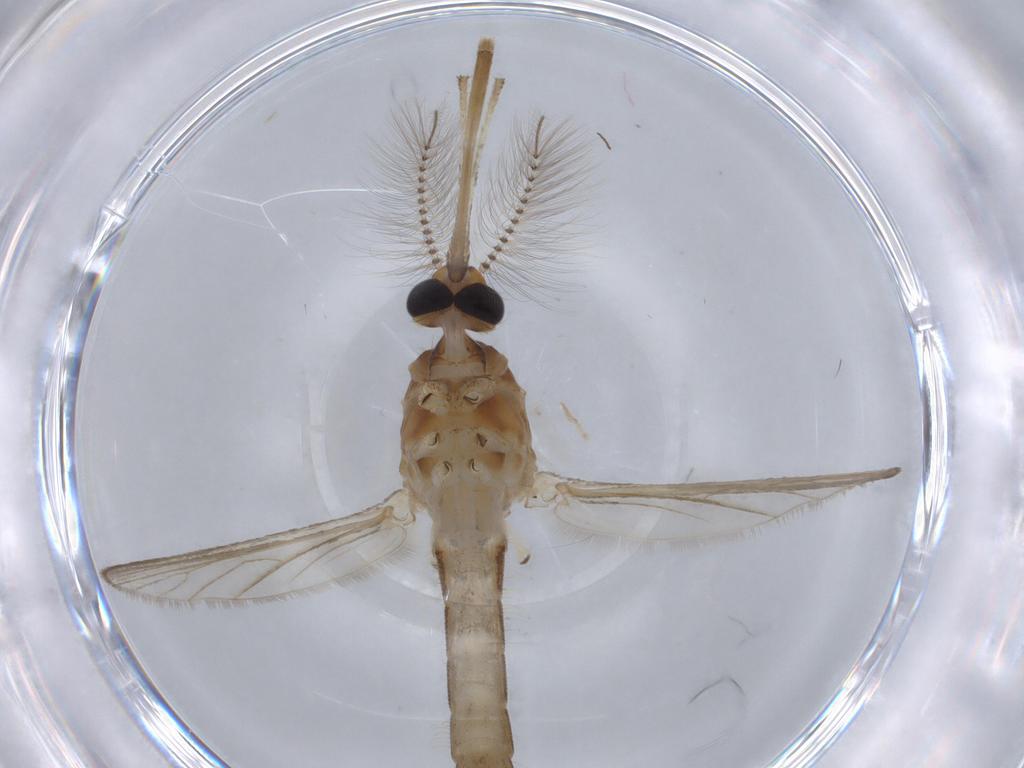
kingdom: Animalia
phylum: Arthropoda
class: Insecta
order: Diptera
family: Culicidae
